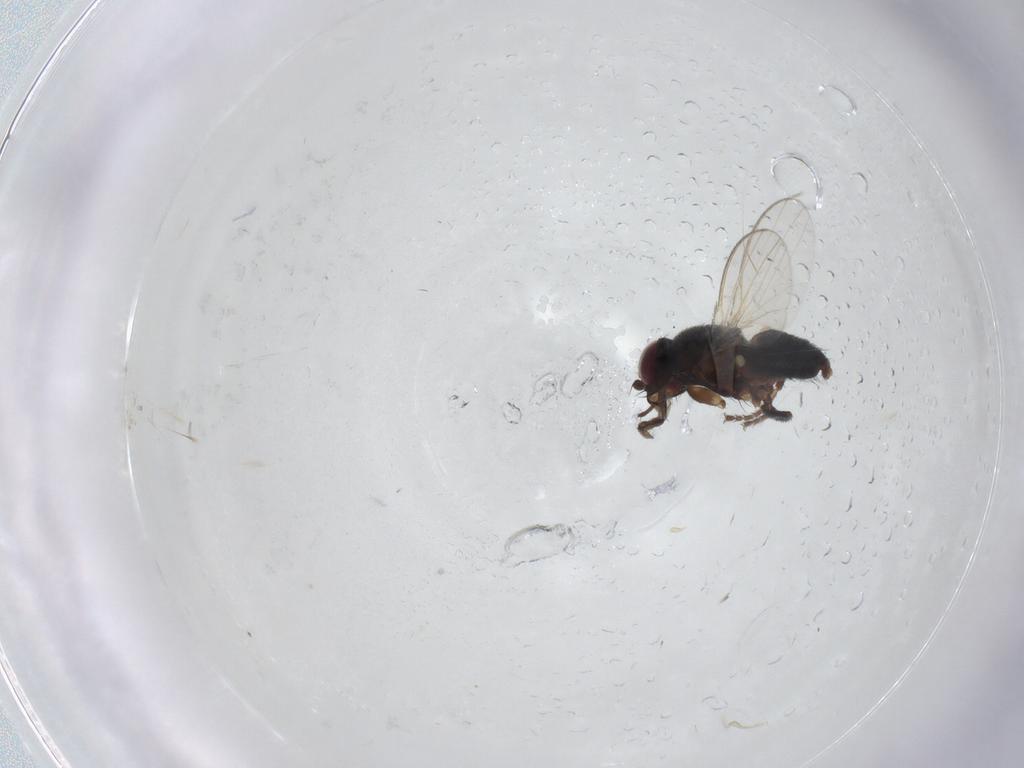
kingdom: Animalia
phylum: Arthropoda
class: Insecta
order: Diptera
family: Milichiidae
